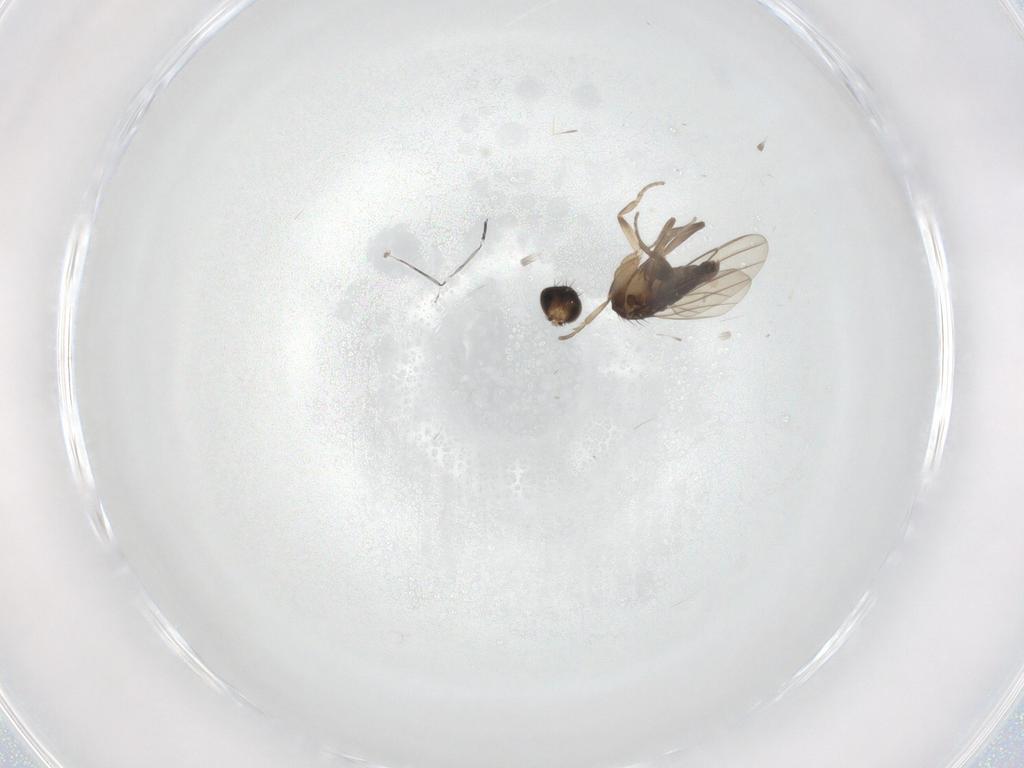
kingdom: Animalia
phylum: Arthropoda
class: Insecta
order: Diptera
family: Phoridae
